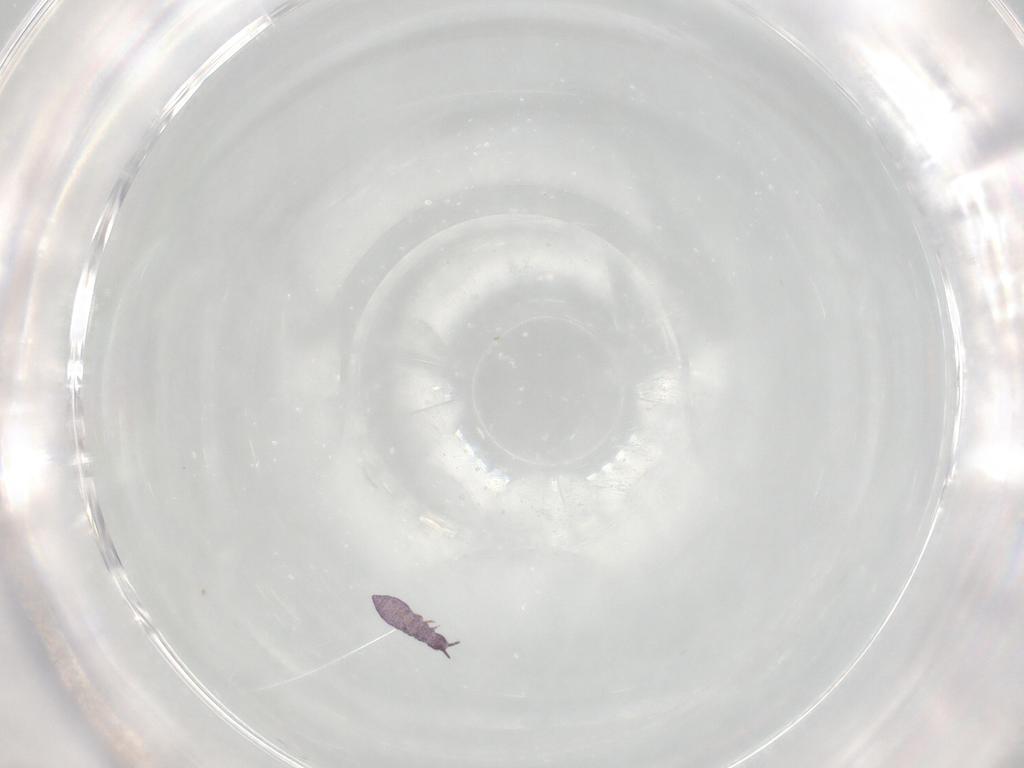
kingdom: Animalia
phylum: Arthropoda
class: Collembola
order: Poduromorpha
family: Brachystomellidae
